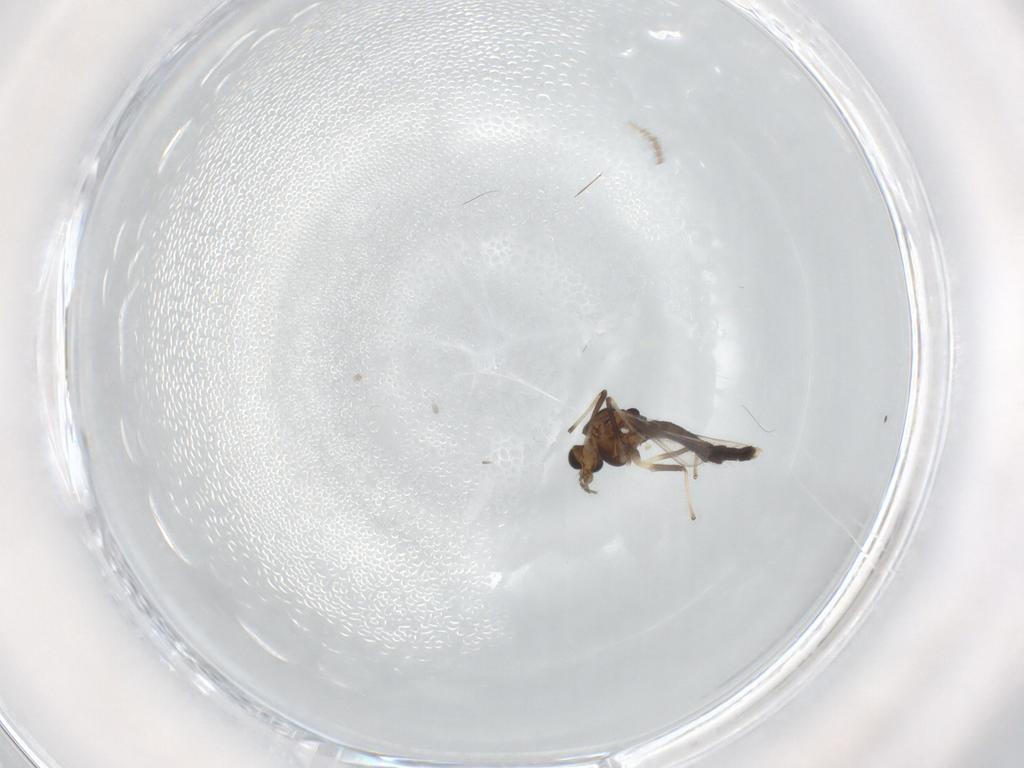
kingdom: Animalia
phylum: Arthropoda
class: Insecta
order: Diptera
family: Chironomidae
